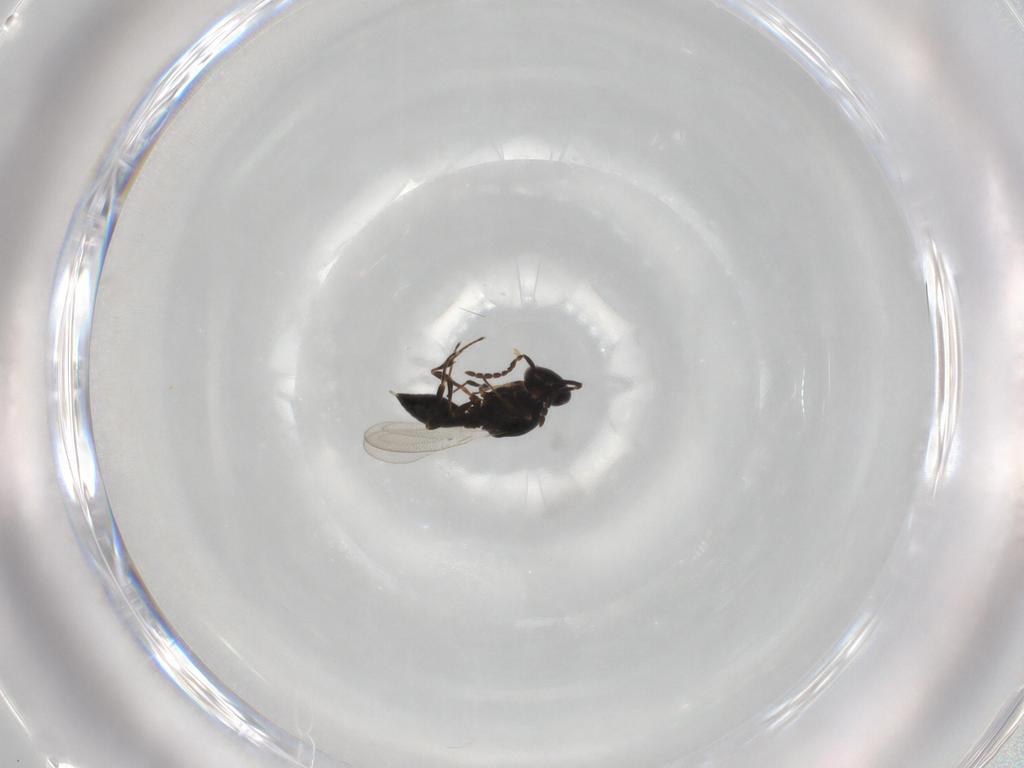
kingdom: Animalia
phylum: Arthropoda
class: Insecta
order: Hymenoptera
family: Platygastridae
